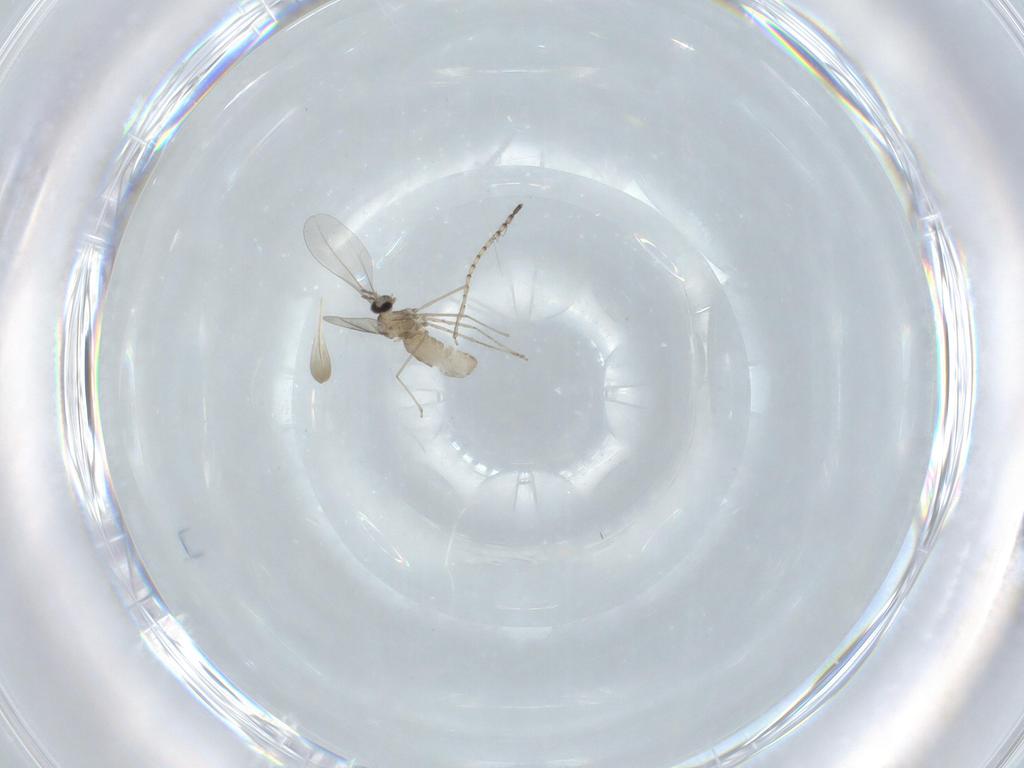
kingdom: Animalia
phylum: Arthropoda
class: Insecta
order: Diptera
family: Cecidomyiidae
